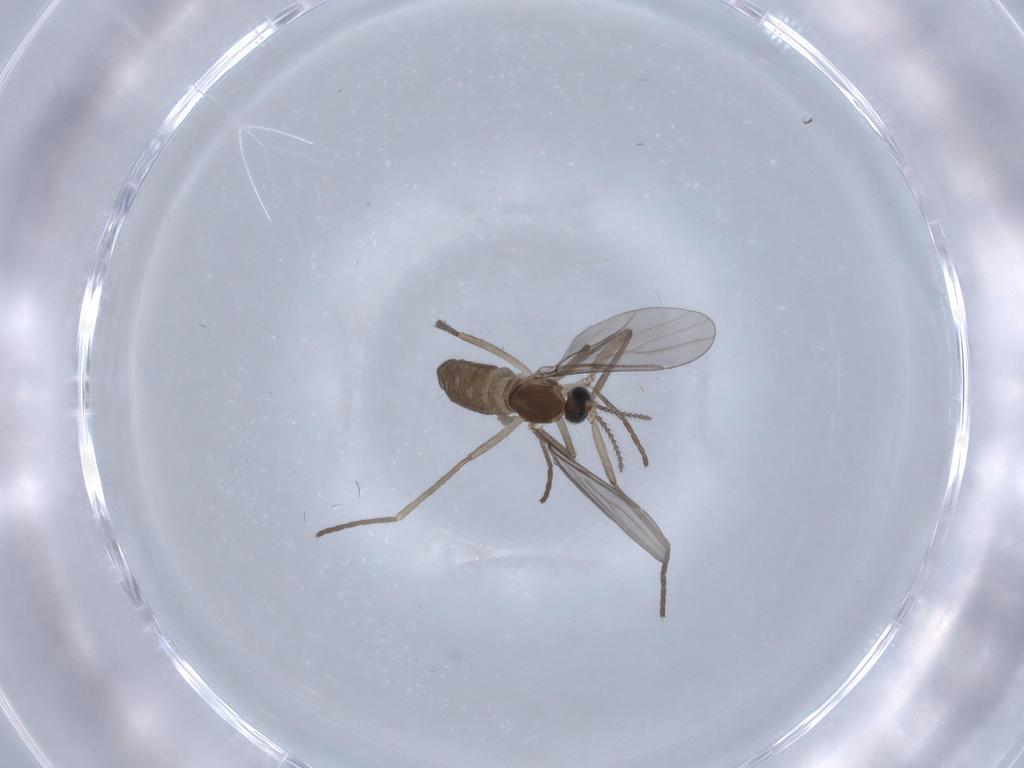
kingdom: Animalia
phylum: Arthropoda
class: Insecta
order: Diptera
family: Cecidomyiidae
